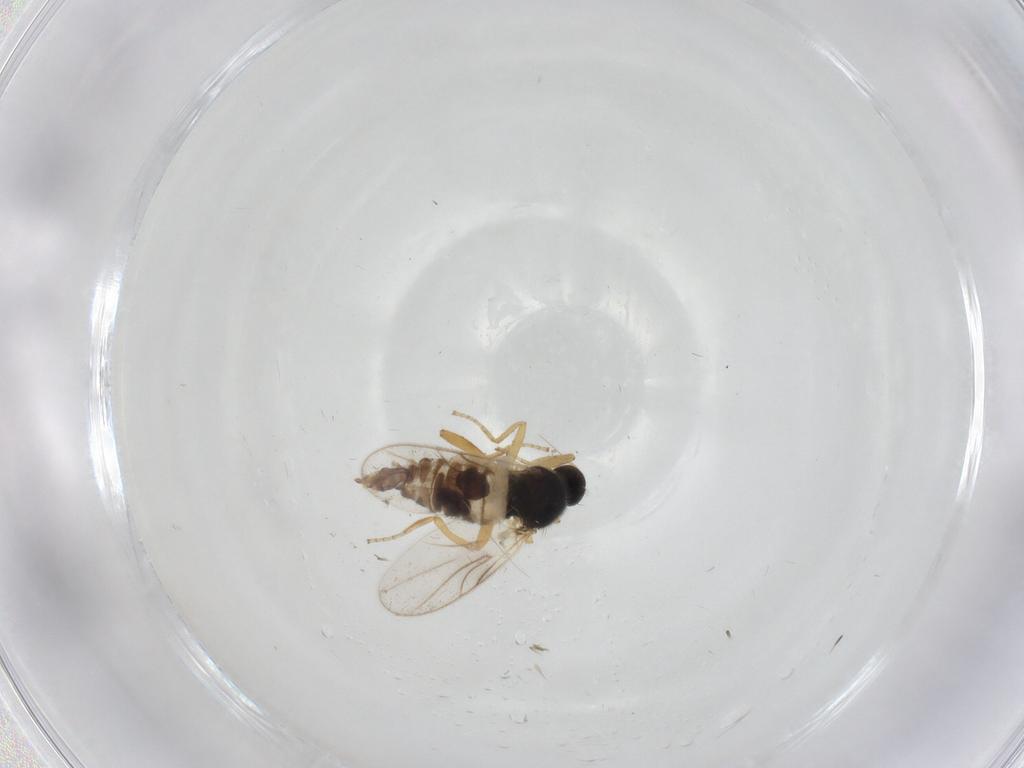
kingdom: Animalia
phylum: Arthropoda
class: Insecta
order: Diptera
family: Hybotidae
